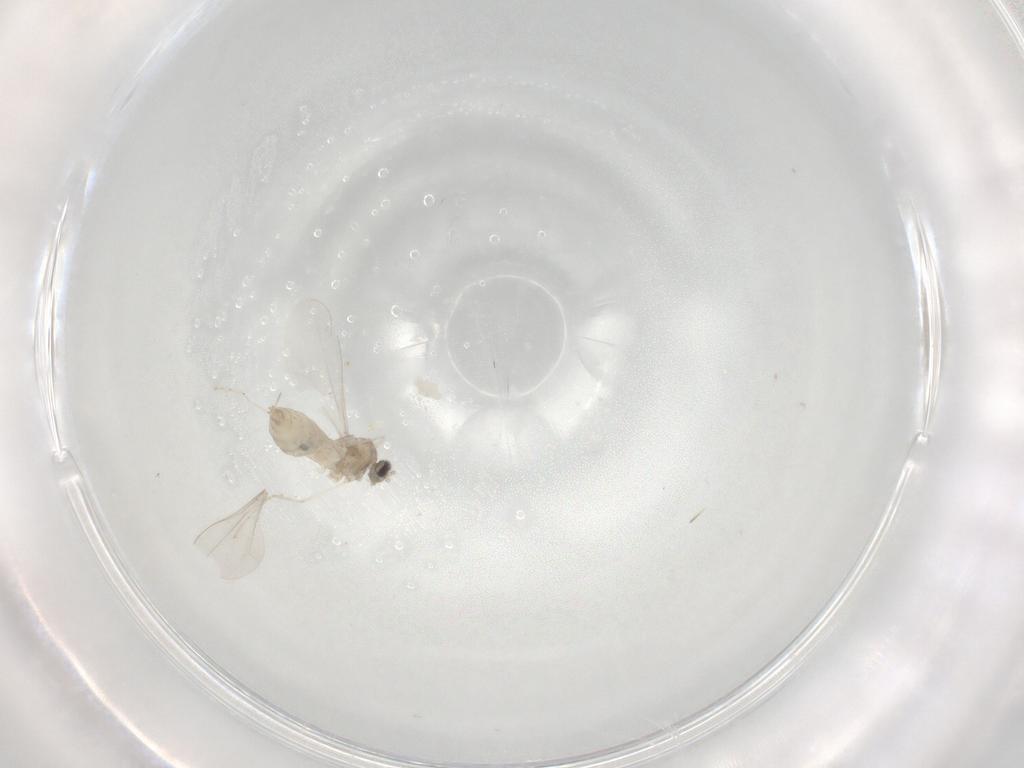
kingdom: Animalia
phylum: Arthropoda
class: Insecta
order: Diptera
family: Cecidomyiidae
